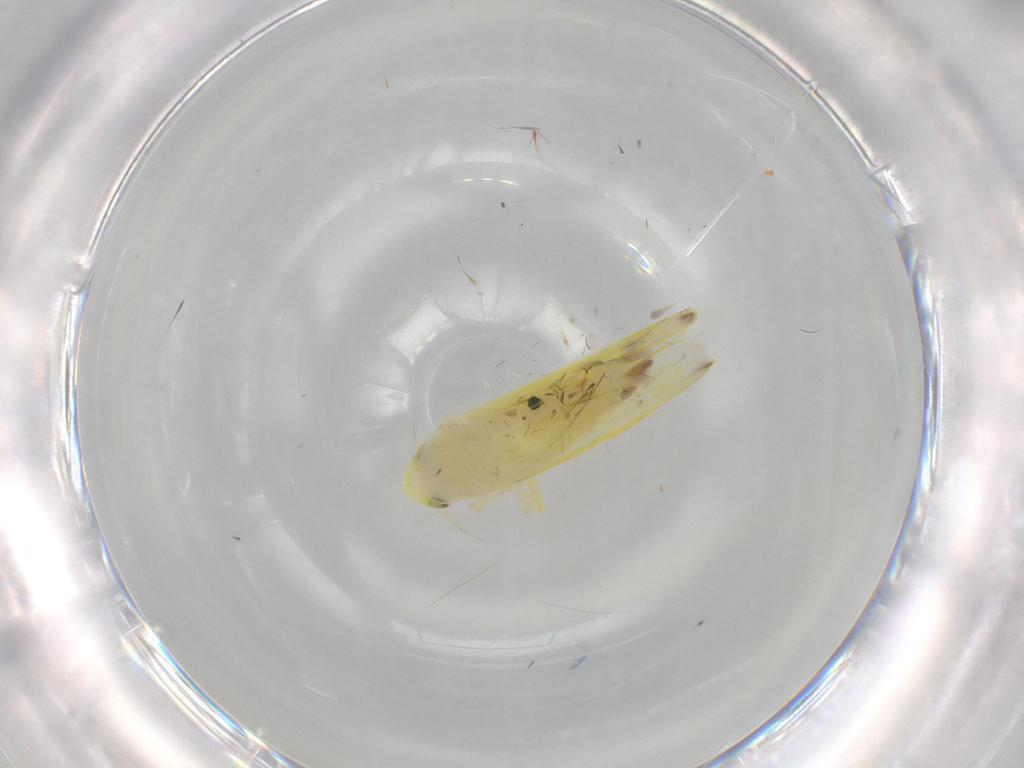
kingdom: Animalia
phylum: Arthropoda
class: Insecta
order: Hemiptera
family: Cicadellidae
